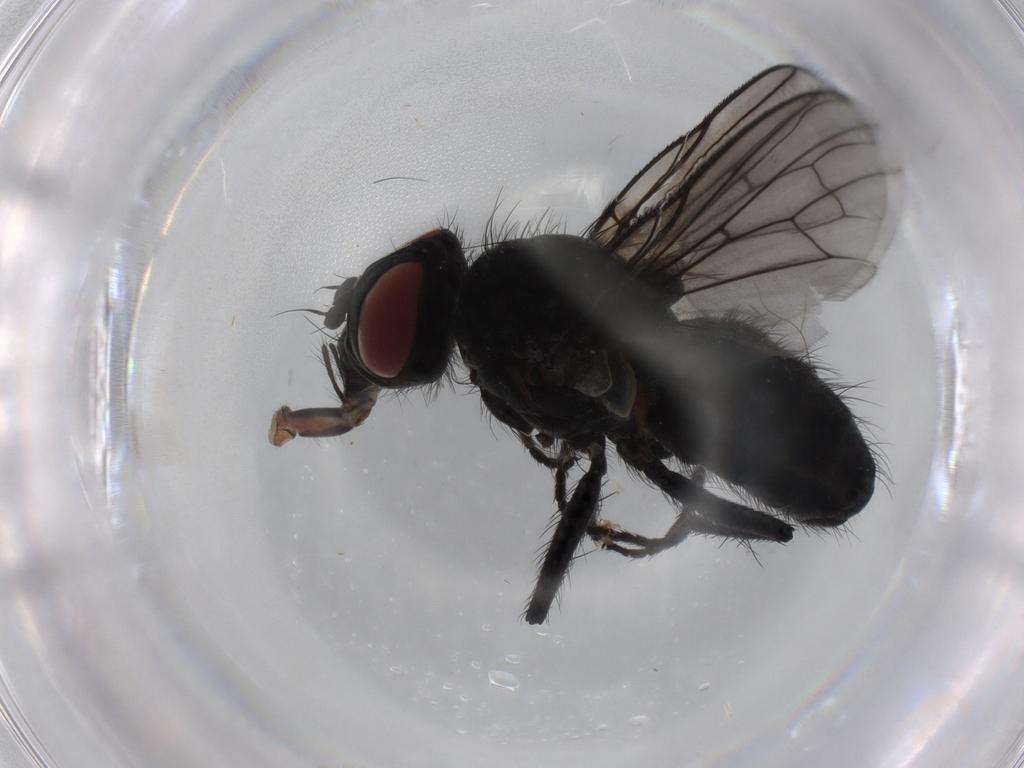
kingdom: Animalia
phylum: Arthropoda
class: Insecta
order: Diptera
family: Muscidae
